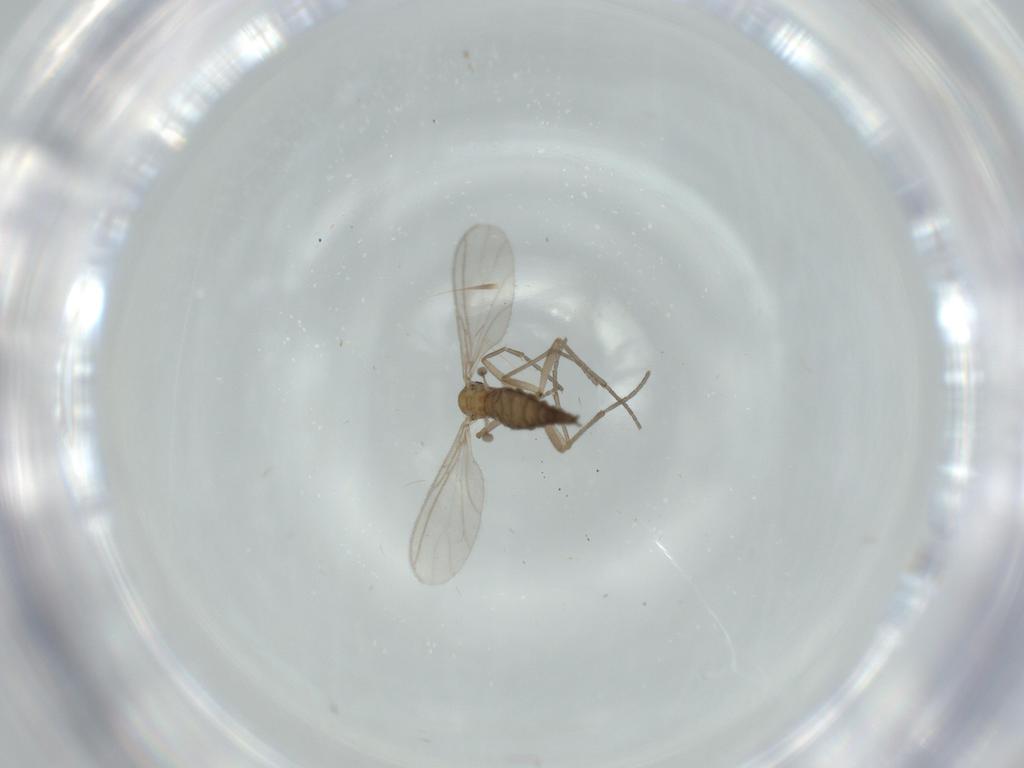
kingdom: Animalia
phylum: Arthropoda
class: Insecta
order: Diptera
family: Sciaridae
